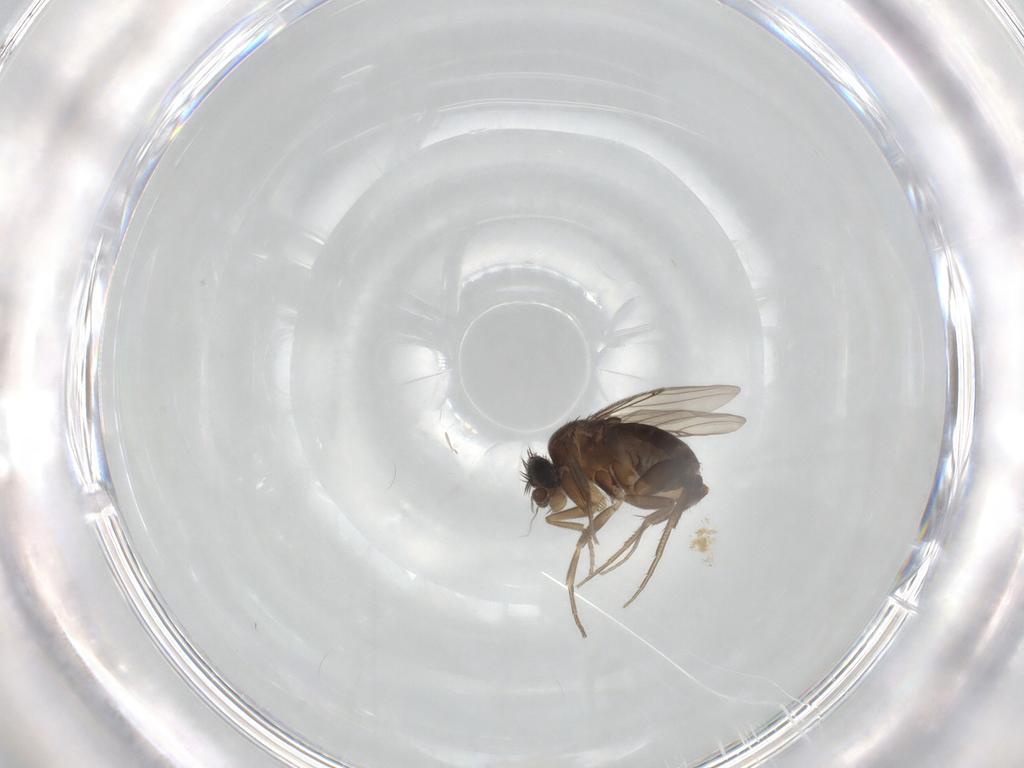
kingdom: Animalia
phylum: Arthropoda
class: Insecta
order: Diptera
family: Phoridae
